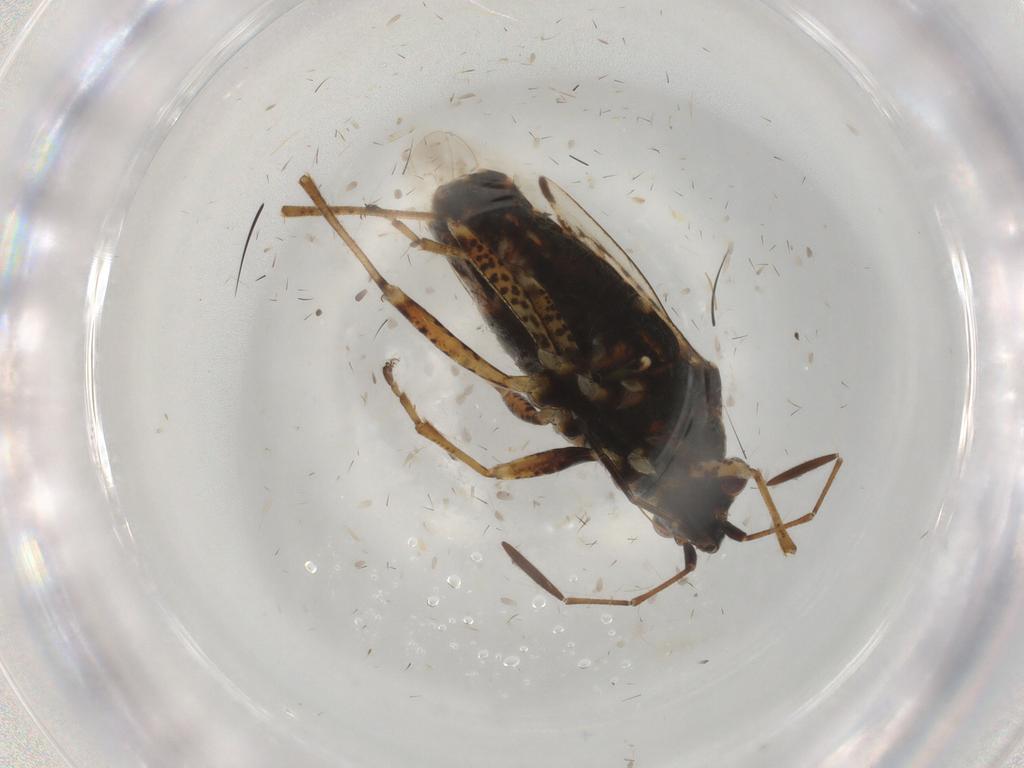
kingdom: Animalia
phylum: Arthropoda
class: Insecta
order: Hemiptera
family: Lygaeidae
